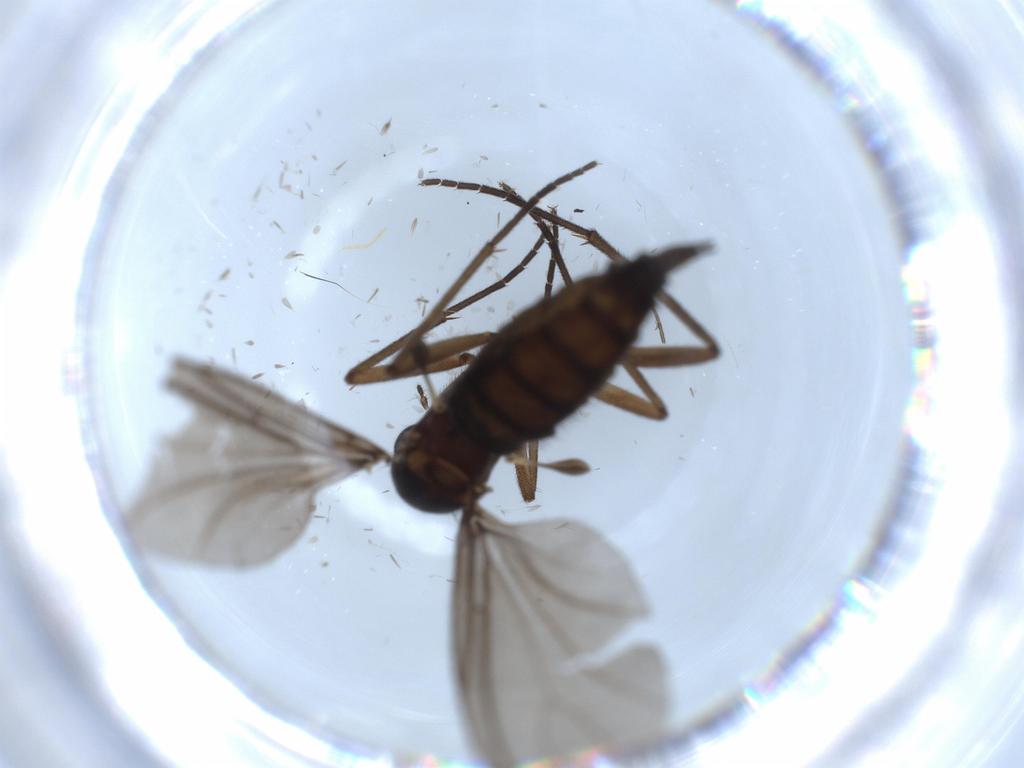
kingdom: Animalia
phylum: Arthropoda
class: Insecta
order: Diptera
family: Sciaridae
